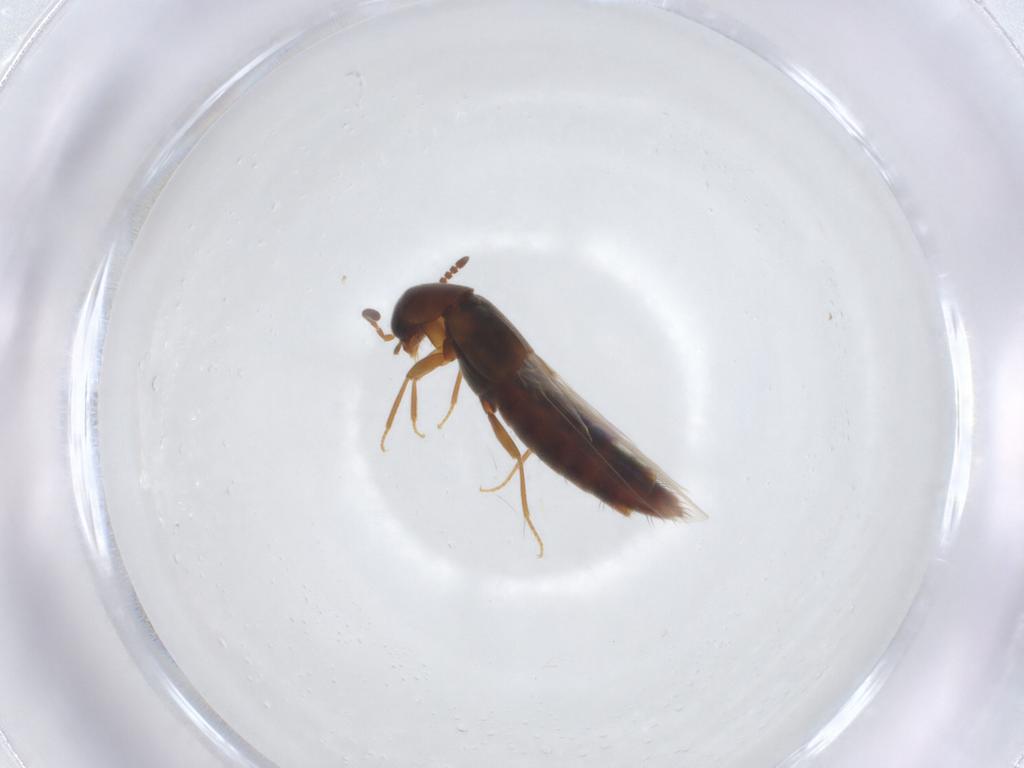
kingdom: Animalia
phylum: Arthropoda
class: Insecta
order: Coleoptera
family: Staphylinidae
